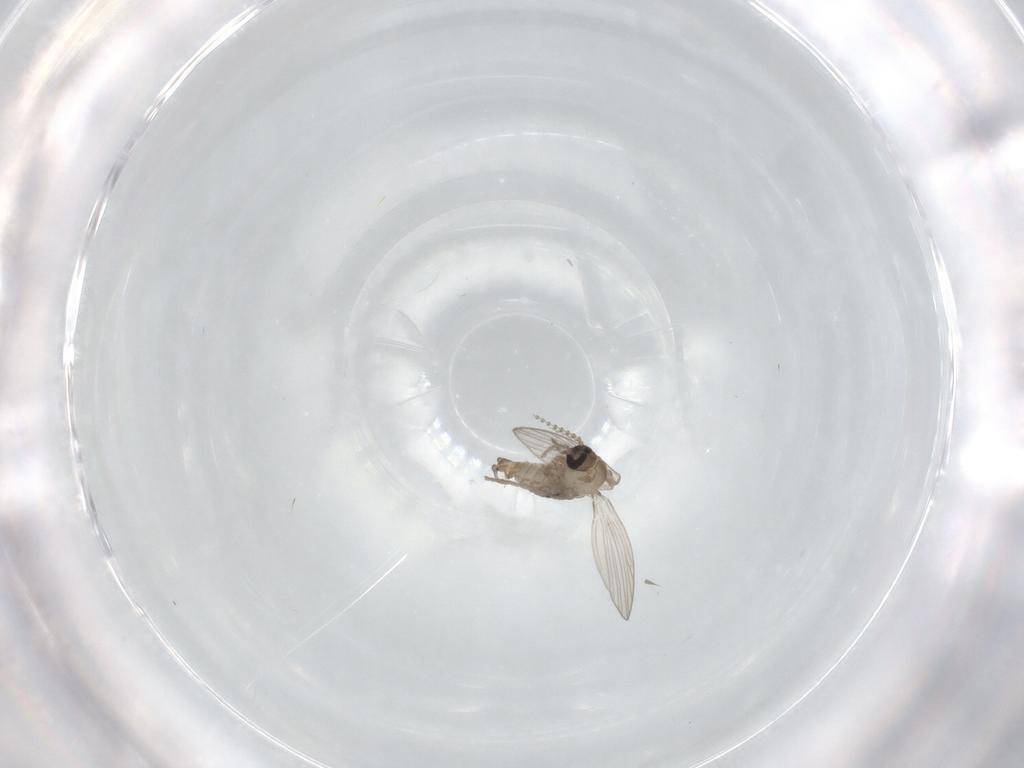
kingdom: Animalia
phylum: Arthropoda
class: Insecta
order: Diptera
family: Psychodidae
